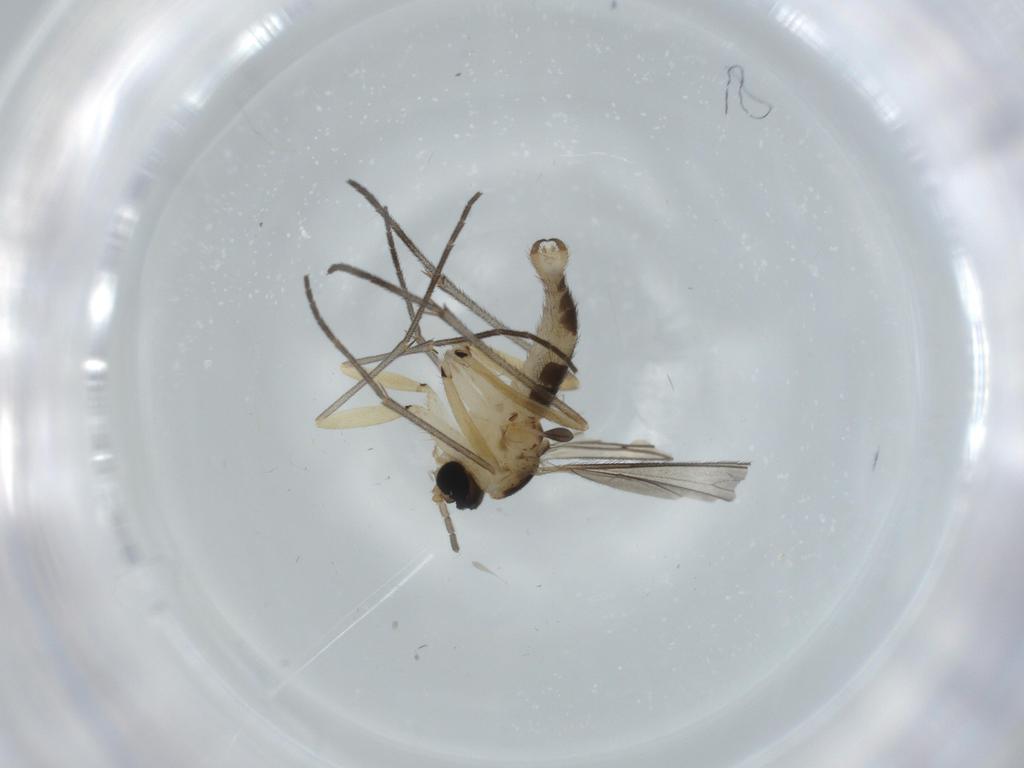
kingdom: Animalia
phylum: Arthropoda
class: Insecta
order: Diptera
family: Sciaridae
